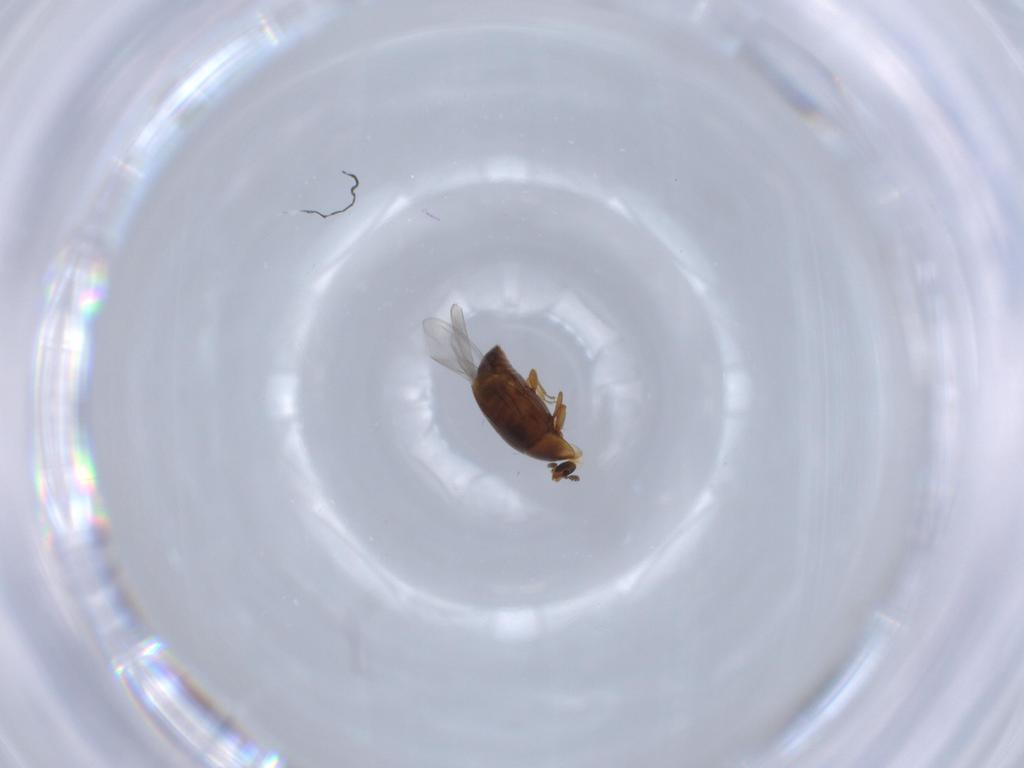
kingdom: Animalia
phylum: Arthropoda
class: Insecta
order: Coleoptera
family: Corylophidae
